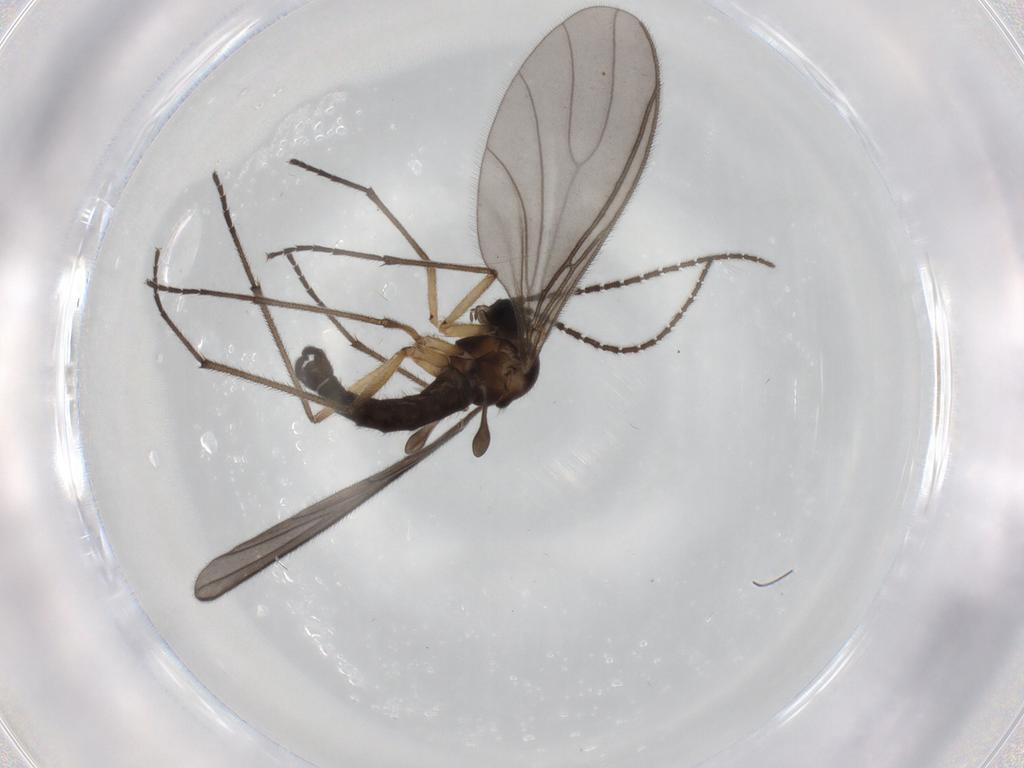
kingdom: Animalia
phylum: Arthropoda
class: Insecta
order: Diptera
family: Sciaridae
